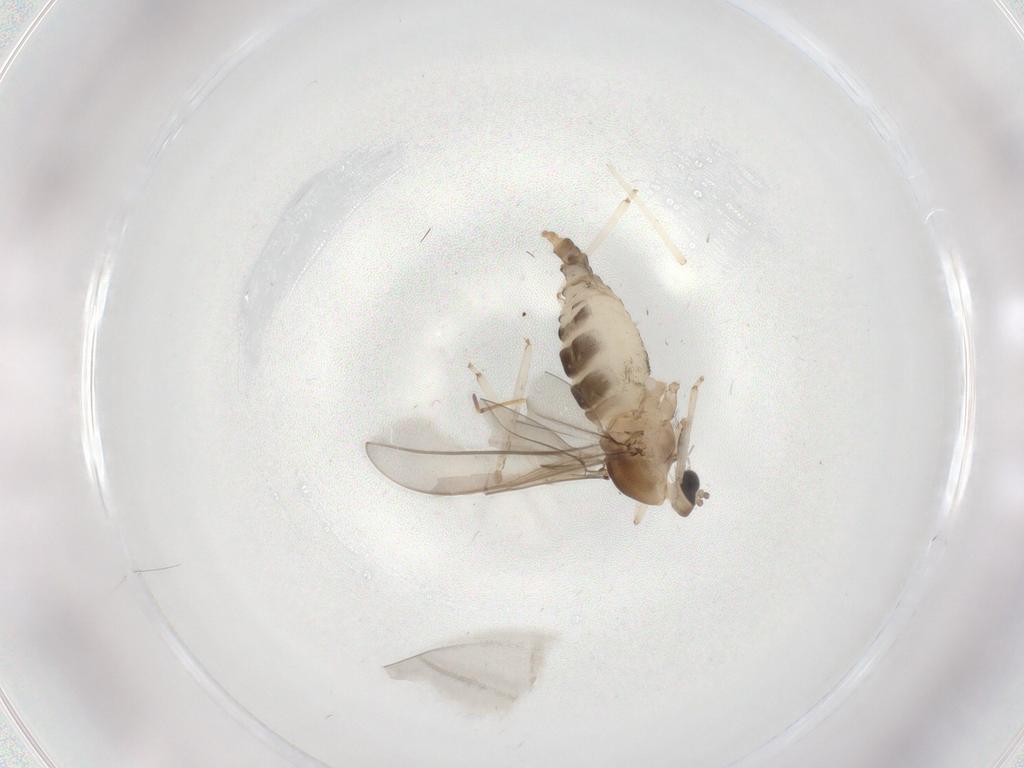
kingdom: Animalia
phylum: Arthropoda
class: Insecta
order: Diptera
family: Cecidomyiidae
